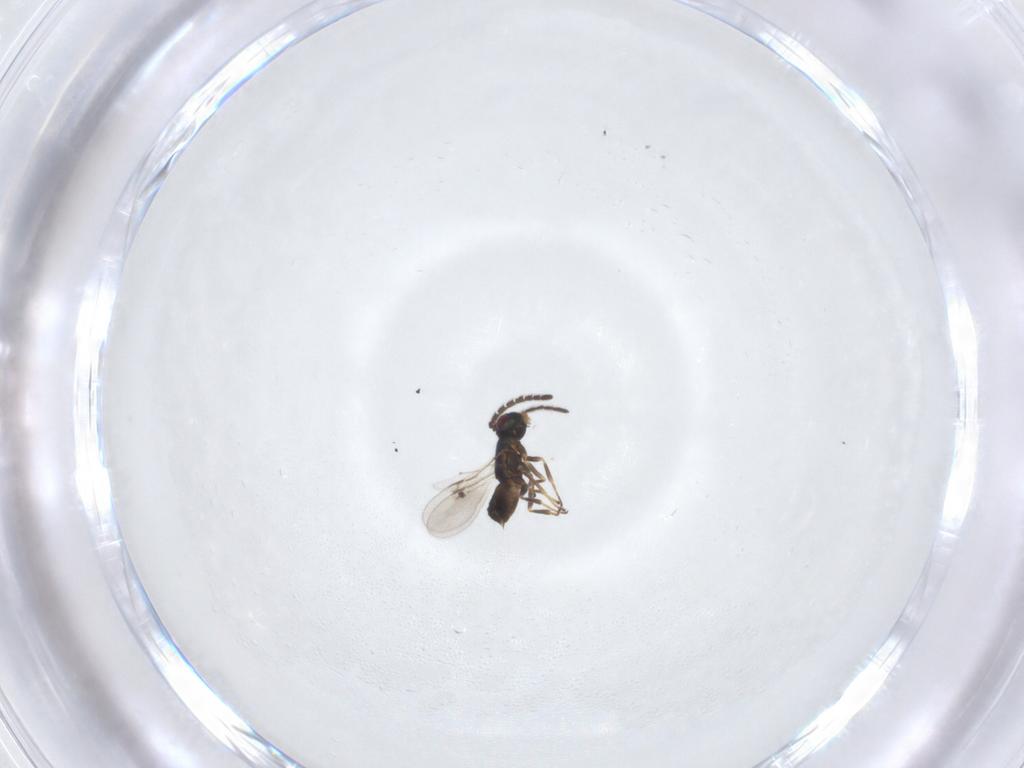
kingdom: Animalia
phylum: Arthropoda
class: Insecta
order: Hymenoptera
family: Encyrtidae
